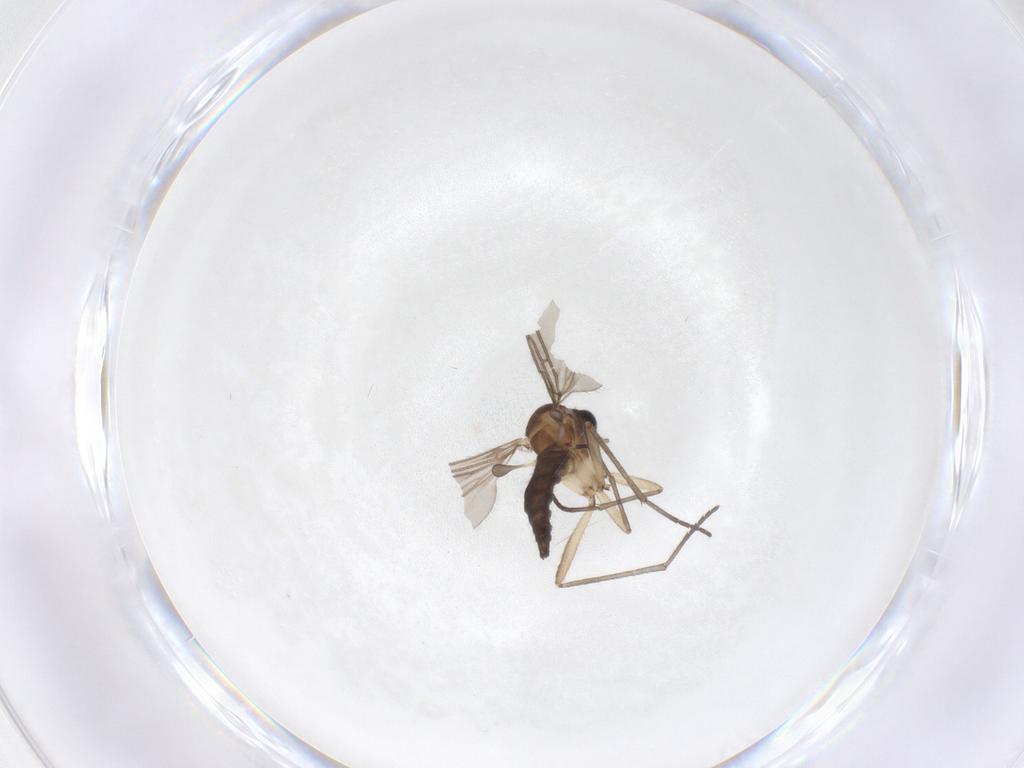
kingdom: Animalia
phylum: Arthropoda
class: Insecta
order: Diptera
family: Sciaridae
